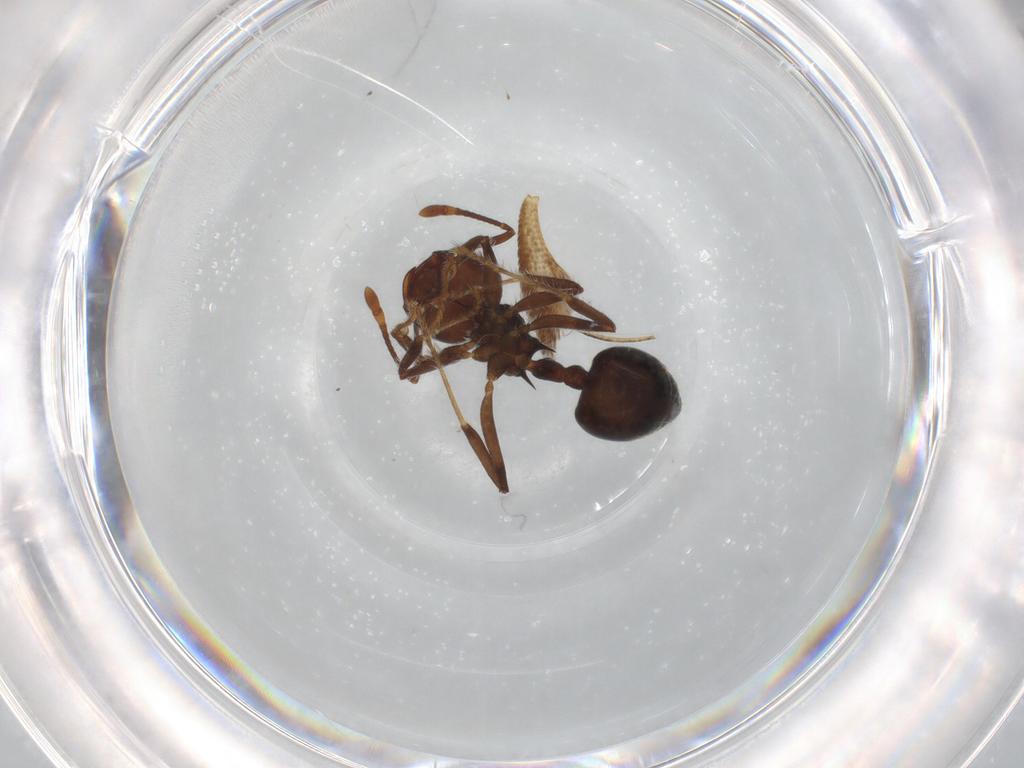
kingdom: Animalia
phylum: Arthropoda
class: Insecta
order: Hymenoptera
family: Formicidae
